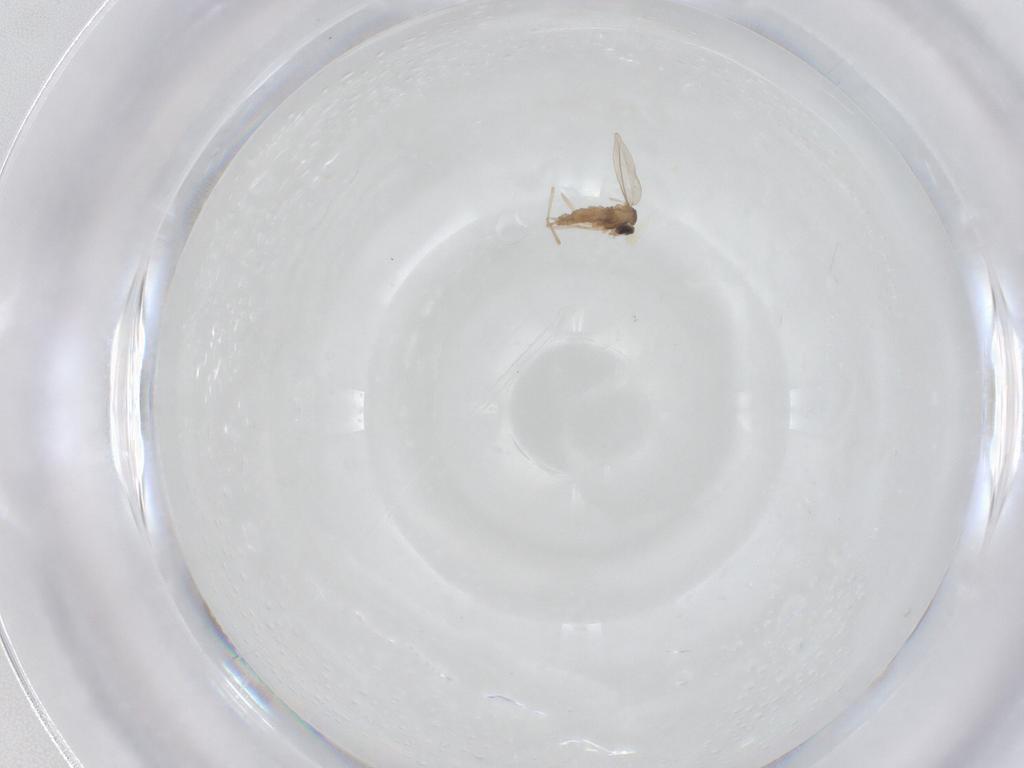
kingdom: Animalia
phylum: Arthropoda
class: Insecta
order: Diptera
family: Cecidomyiidae
